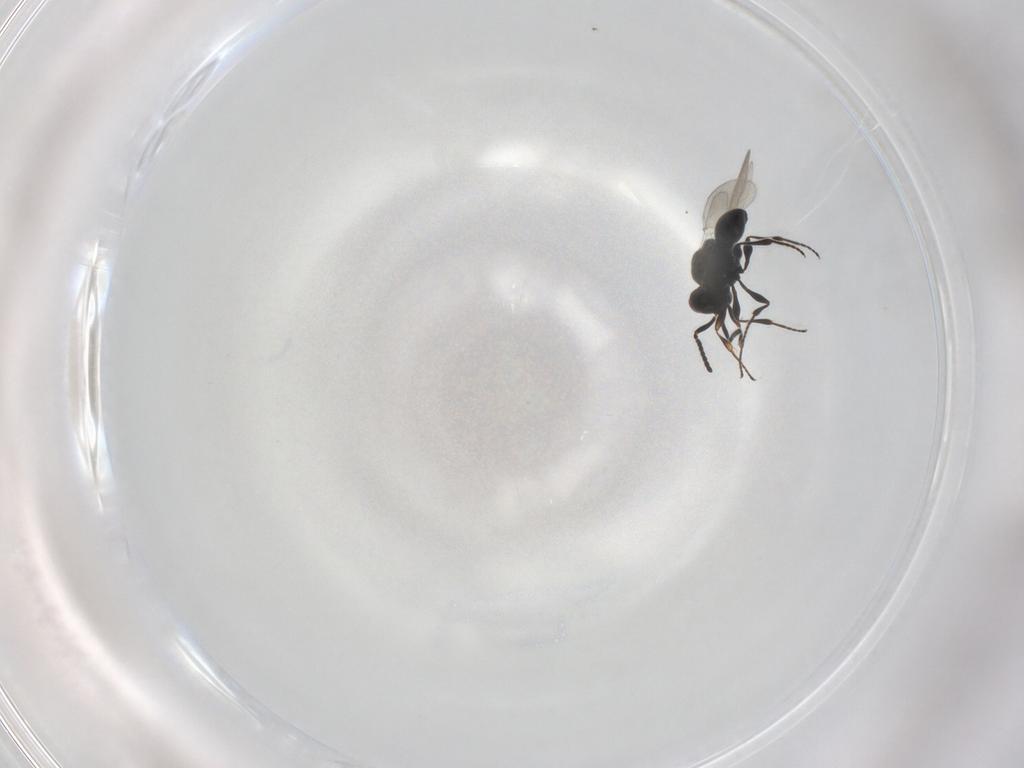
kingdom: Animalia
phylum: Arthropoda
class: Insecta
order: Hymenoptera
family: Platygastridae
